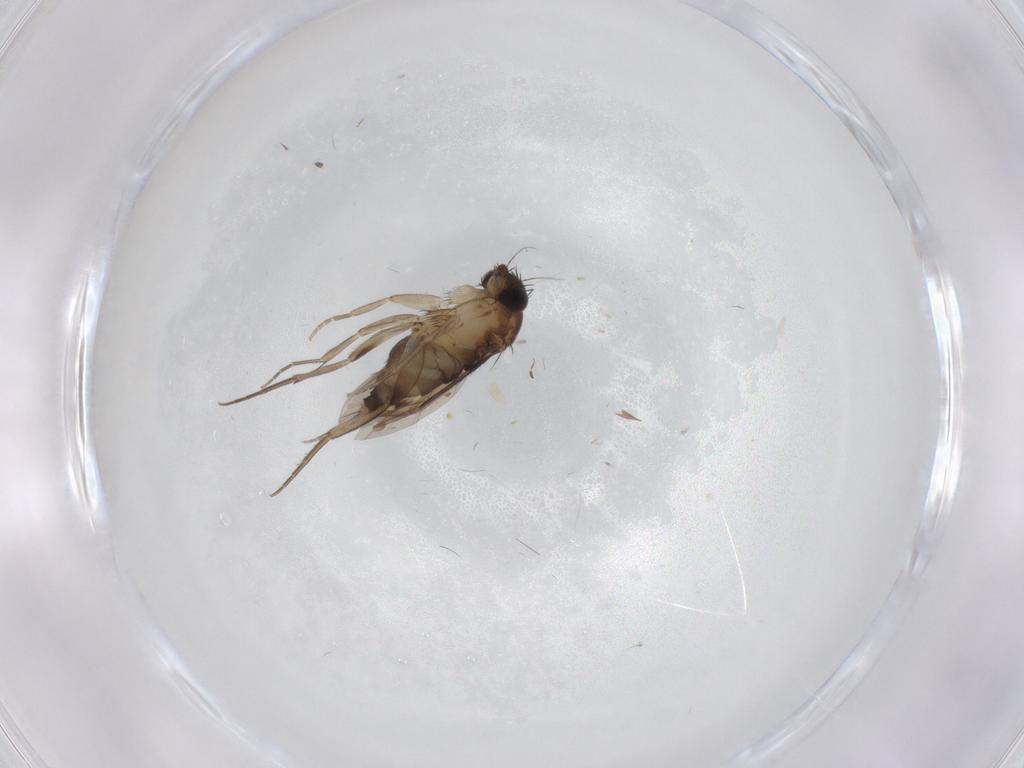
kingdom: Animalia
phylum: Arthropoda
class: Insecta
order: Diptera
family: Phoridae
